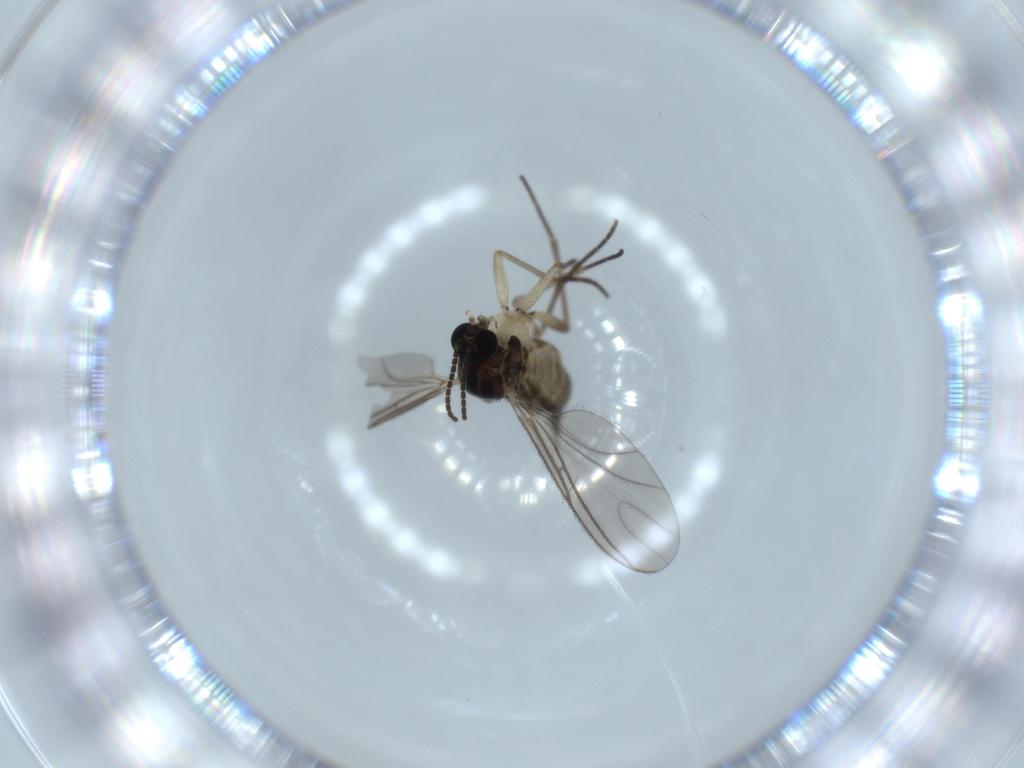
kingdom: Animalia
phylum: Arthropoda
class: Insecta
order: Diptera
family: Sciaridae
